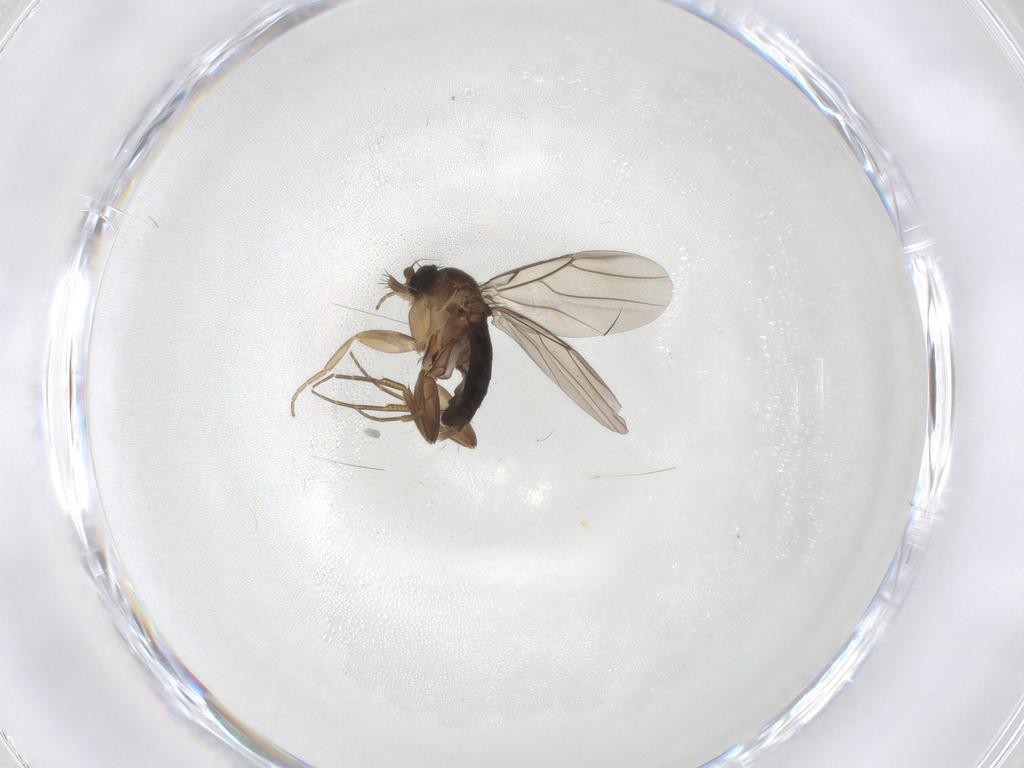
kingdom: Animalia
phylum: Arthropoda
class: Insecta
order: Diptera
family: Phoridae
